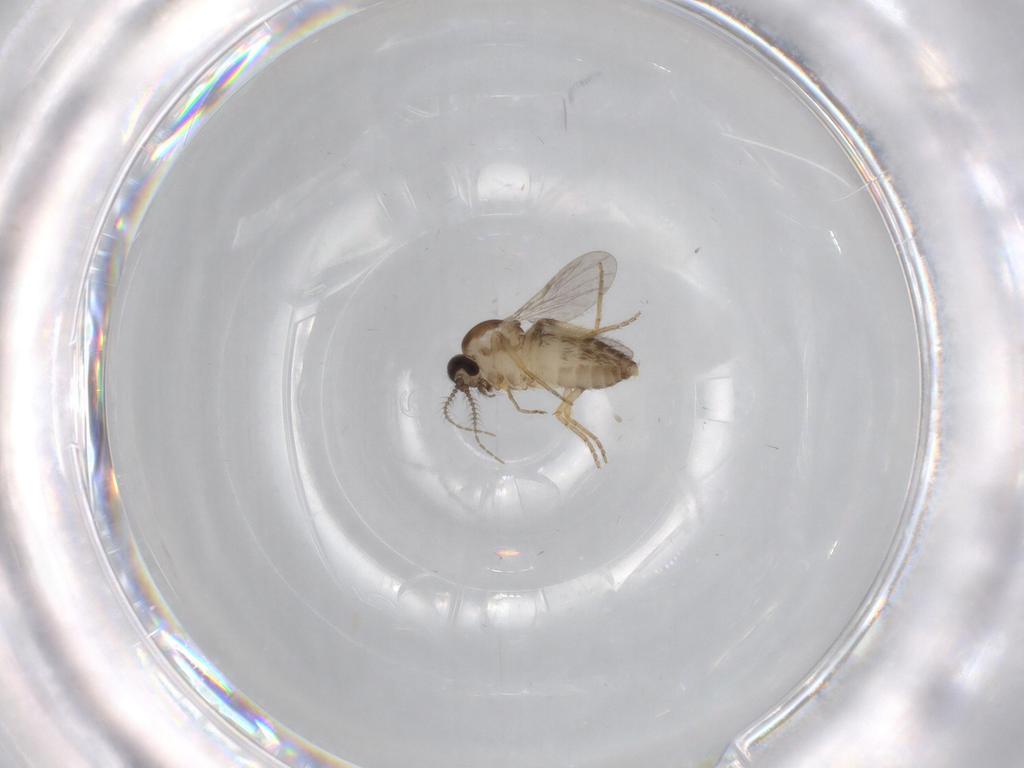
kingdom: Animalia
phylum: Arthropoda
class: Insecta
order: Diptera
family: Ceratopogonidae
